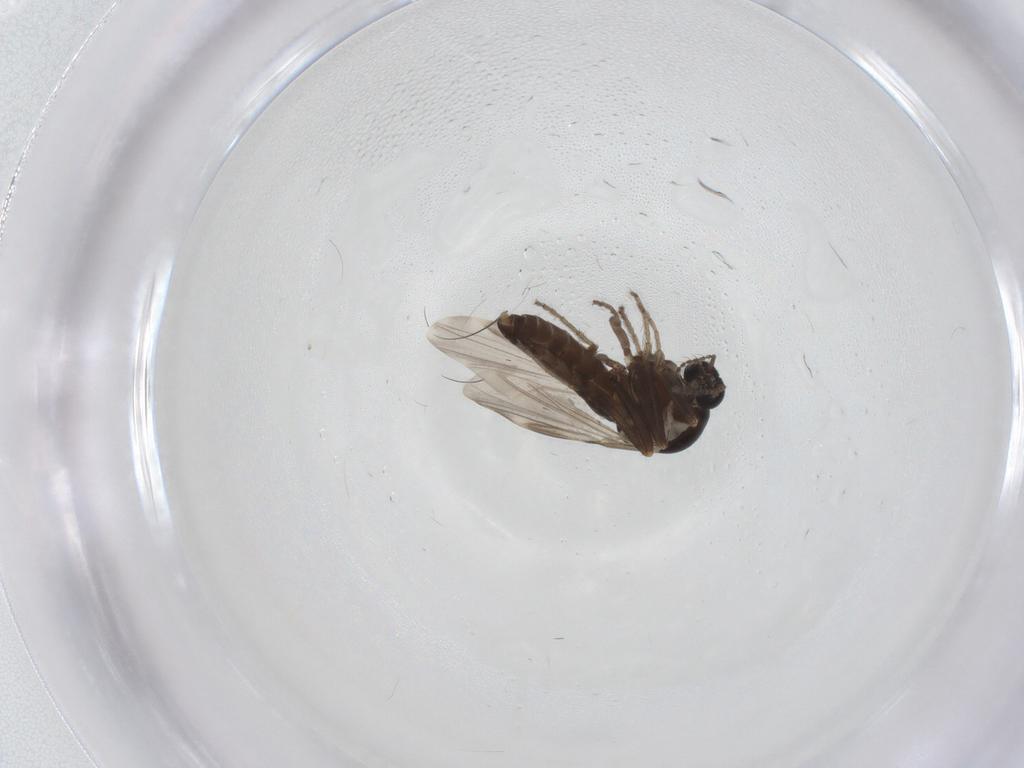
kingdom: Animalia
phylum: Arthropoda
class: Insecta
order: Diptera
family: Ceratopogonidae
